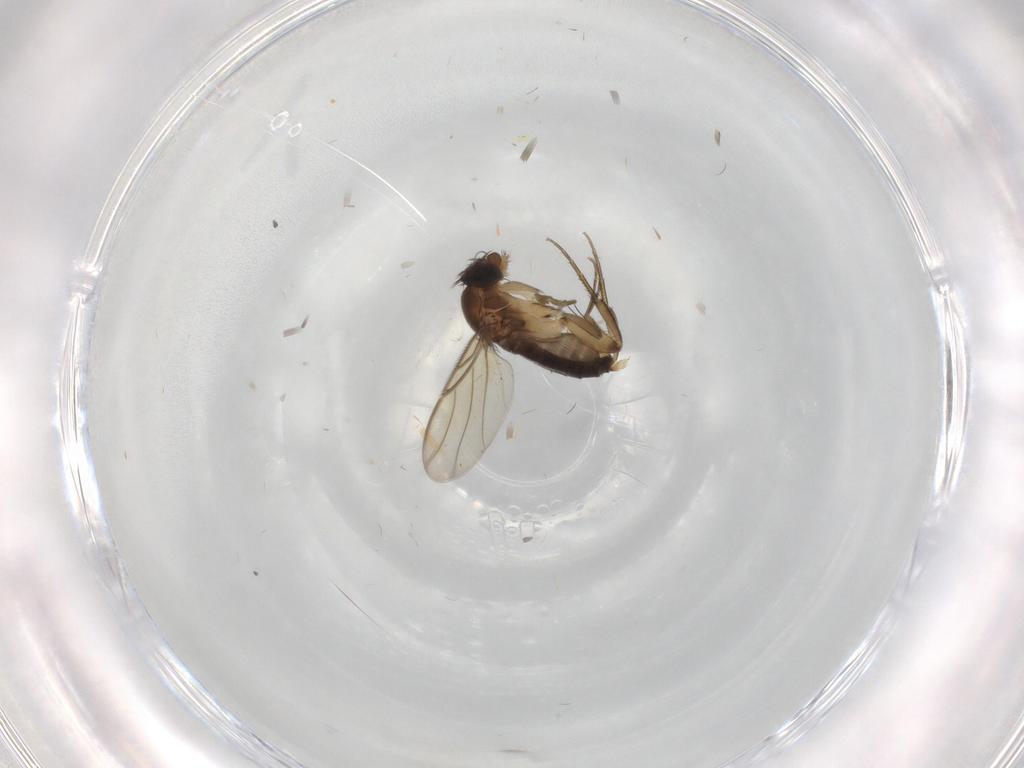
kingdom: Animalia
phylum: Arthropoda
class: Insecta
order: Diptera
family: Phoridae
